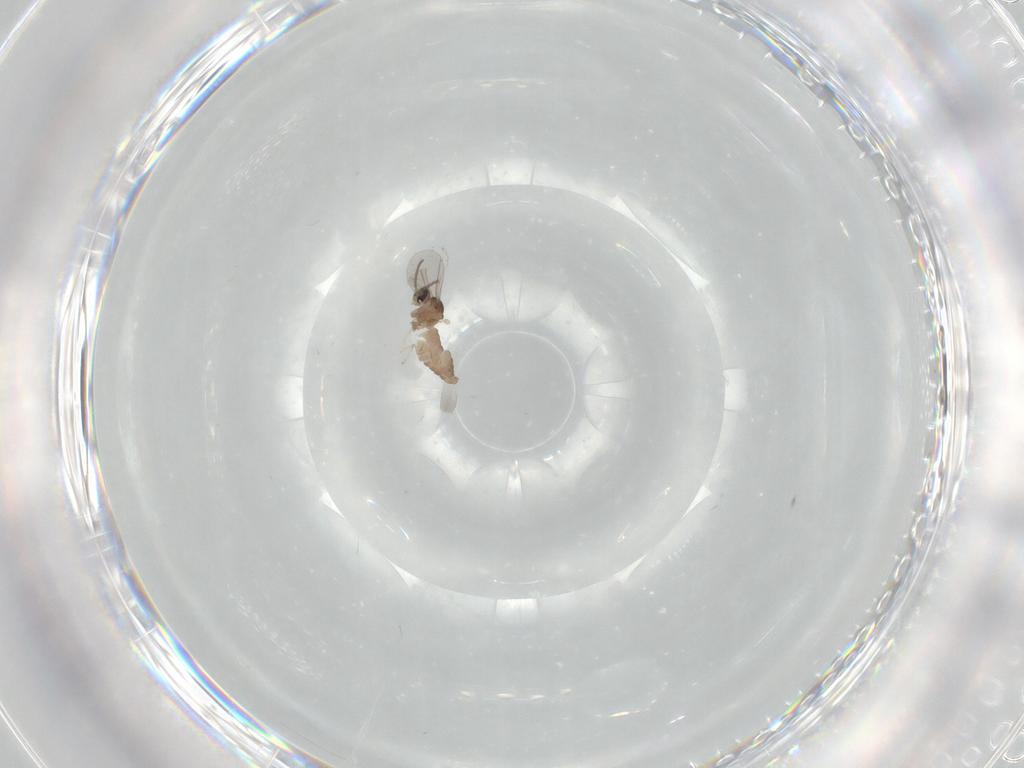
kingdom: Animalia
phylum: Arthropoda
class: Insecta
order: Diptera
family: Cecidomyiidae
